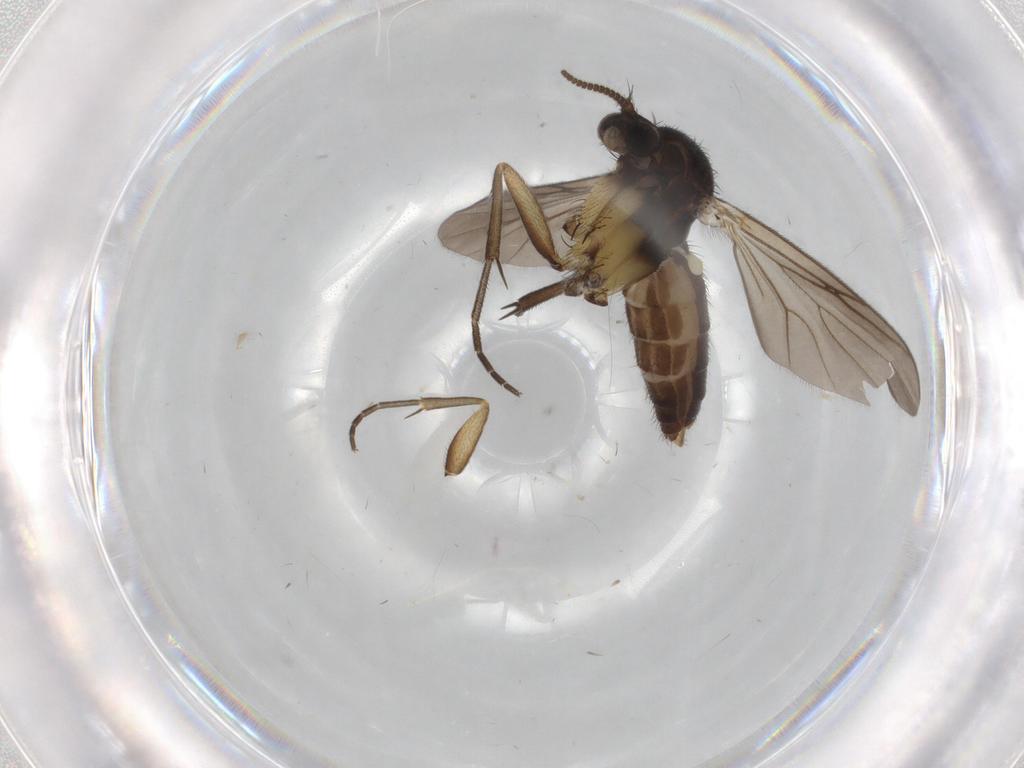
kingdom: Animalia
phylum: Arthropoda
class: Insecta
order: Diptera
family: Mycetophilidae
